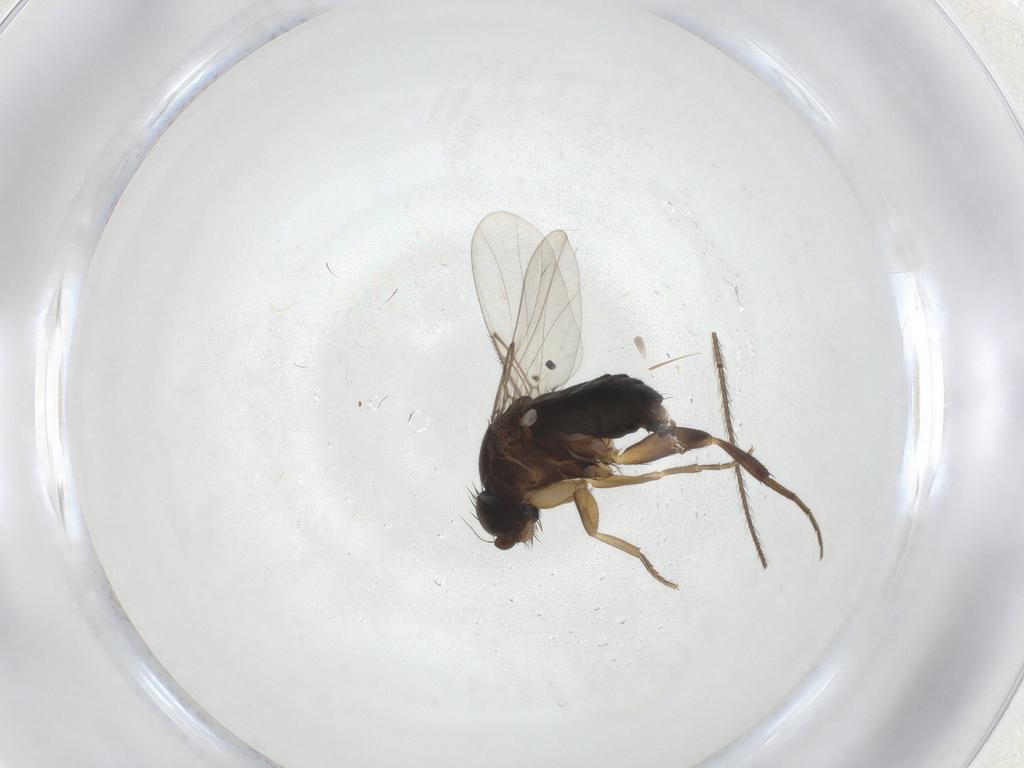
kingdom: Animalia
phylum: Arthropoda
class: Insecta
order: Diptera
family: Phoridae
